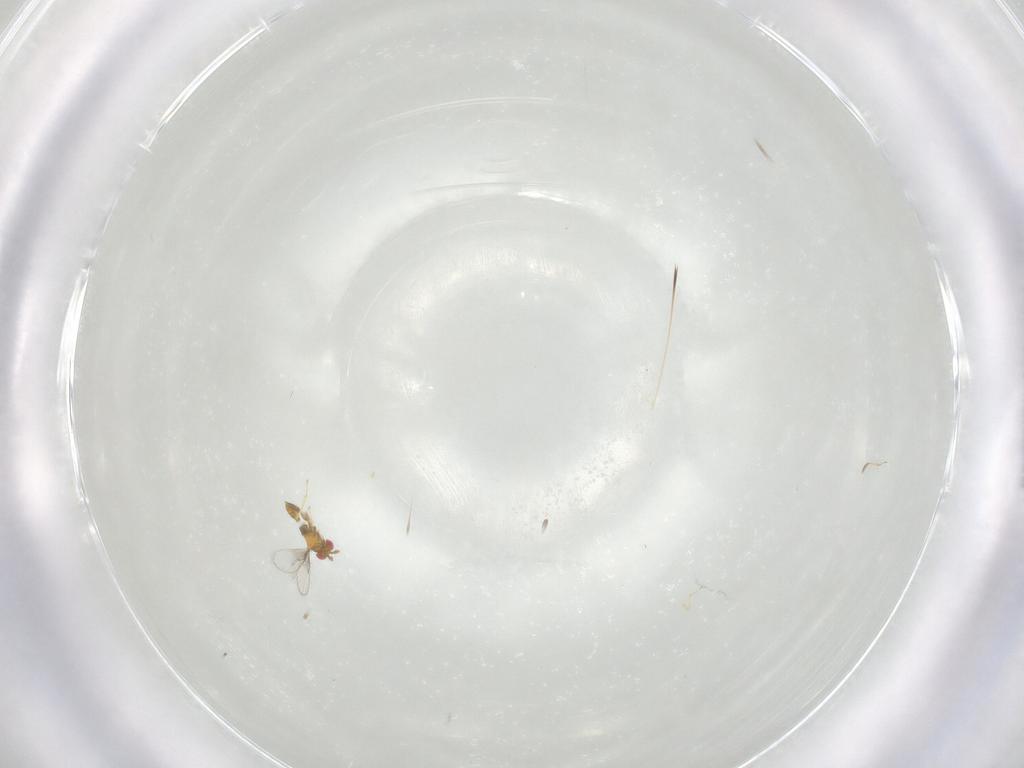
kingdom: Animalia
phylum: Arthropoda
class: Insecta
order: Hymenoptera
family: Trichogrammatidae
